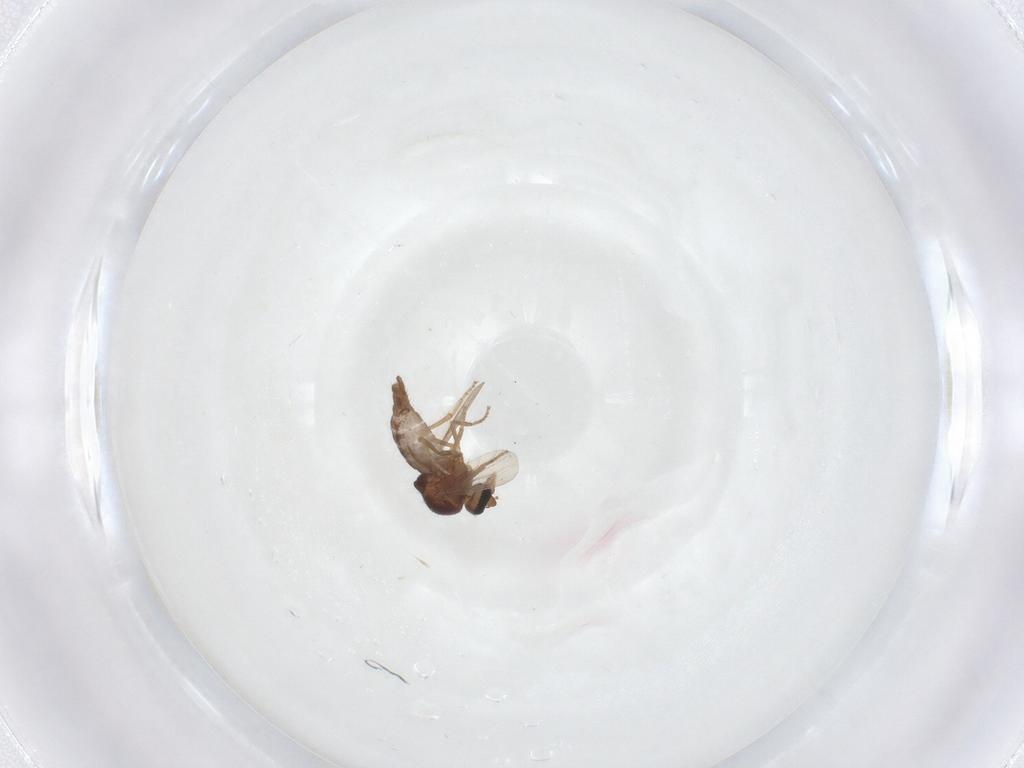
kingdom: Animalia
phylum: Arthropoda
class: Insecta
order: Diptera
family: Ceratopogonidae
